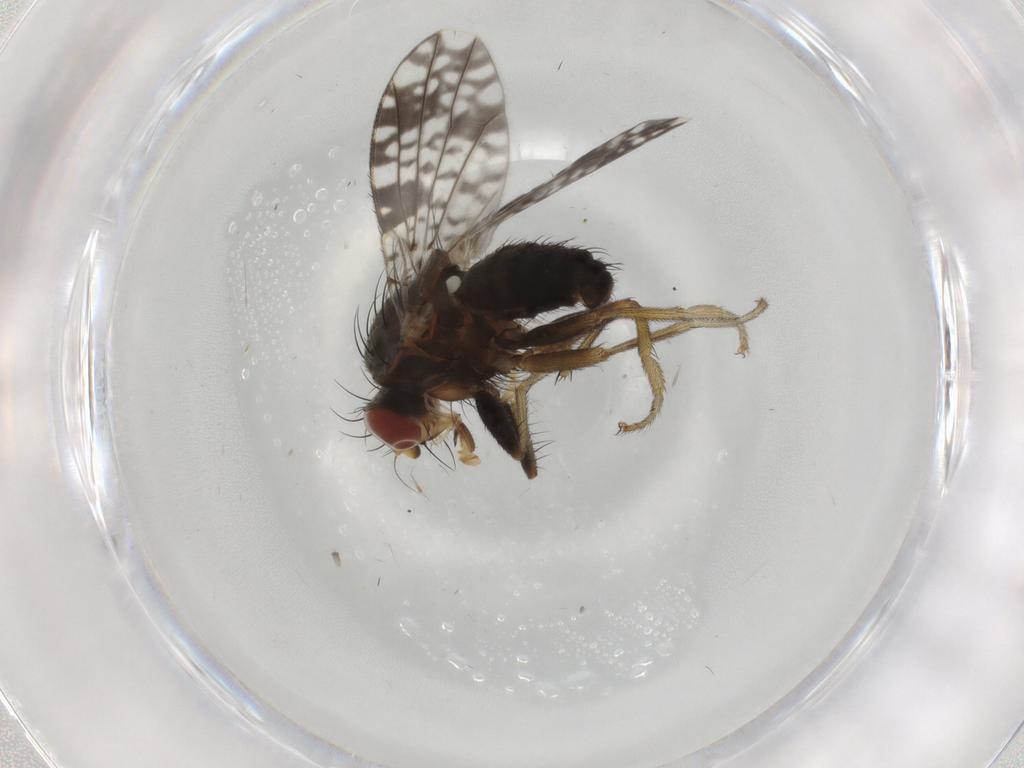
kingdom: Animalia
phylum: Arthropoda
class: Insecta
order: Diptera
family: Tephritidae
